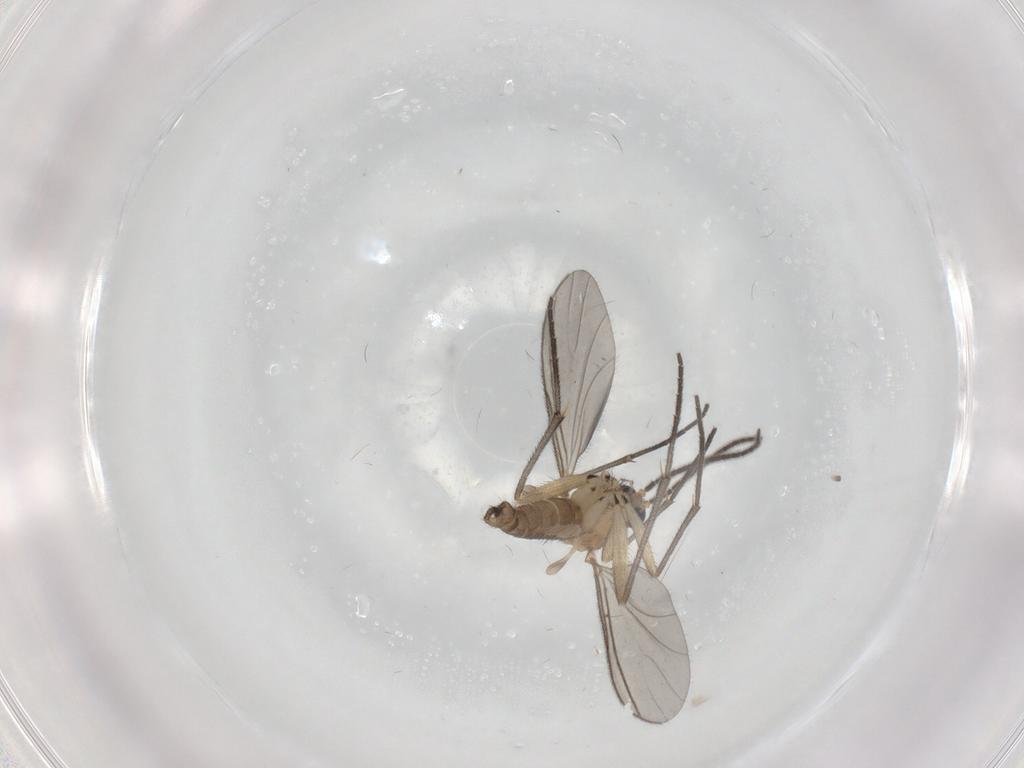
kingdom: Animalia
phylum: Arthropoda
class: Insecta
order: Diptera
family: Sciaridae
